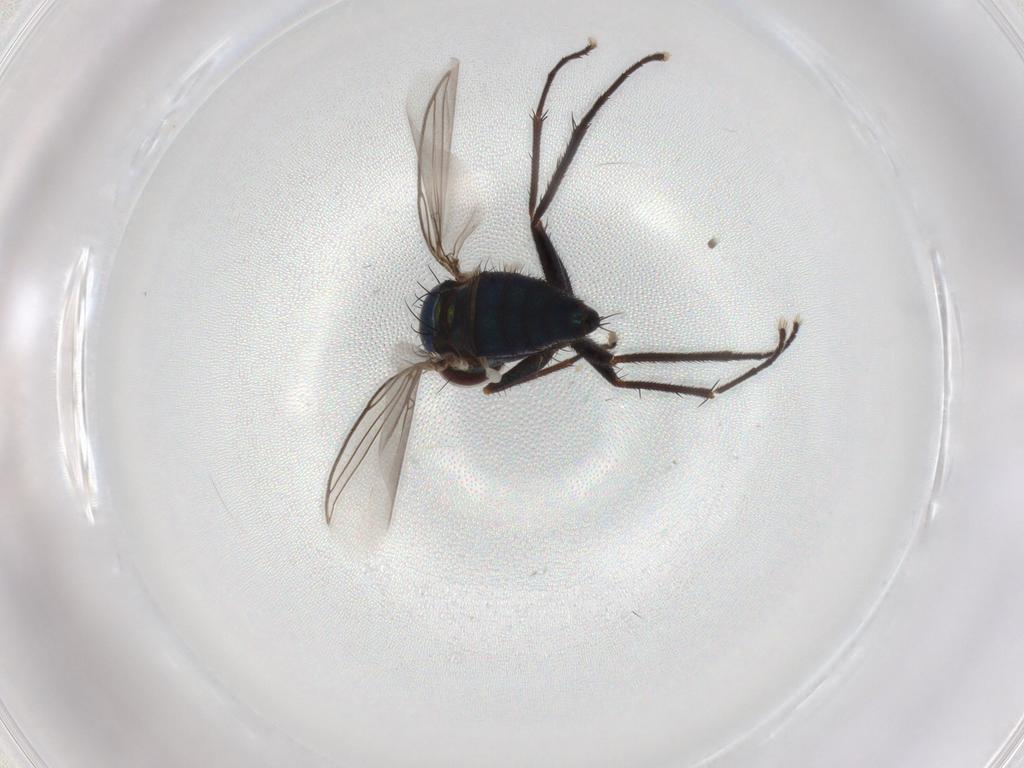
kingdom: Animalia
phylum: Arthropoda
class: Insecta
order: Diptera
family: Dolichopodidae
